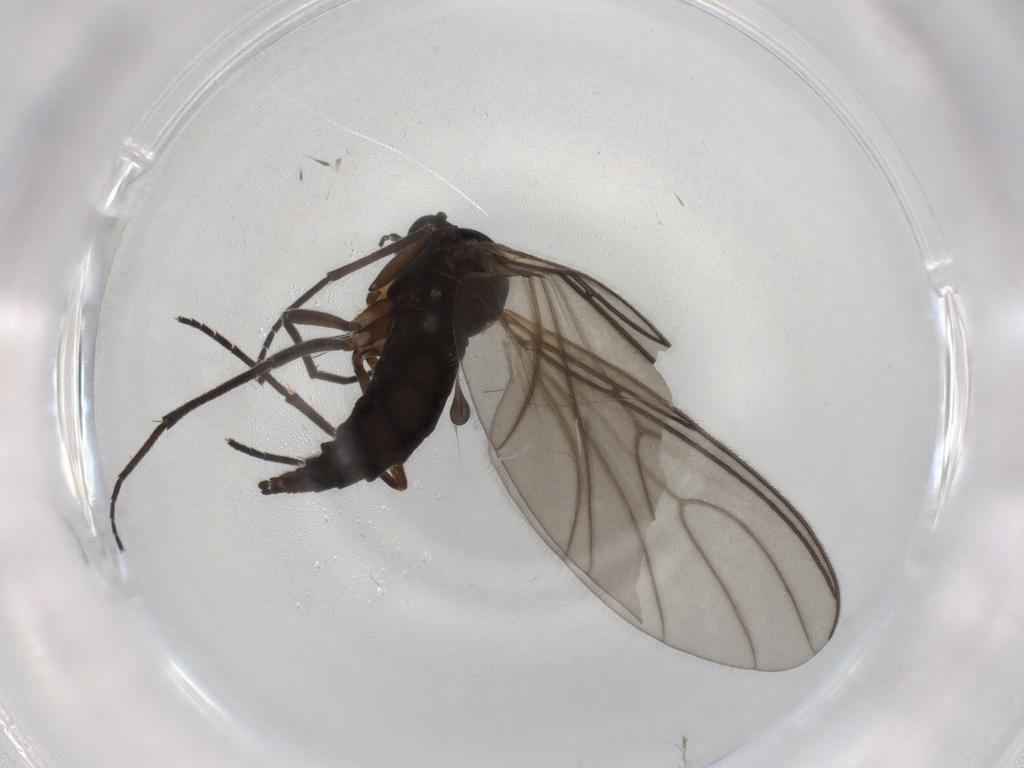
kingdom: Animalia
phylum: Arthropoda
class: Insecta
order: Diptera
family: Sciaridae
